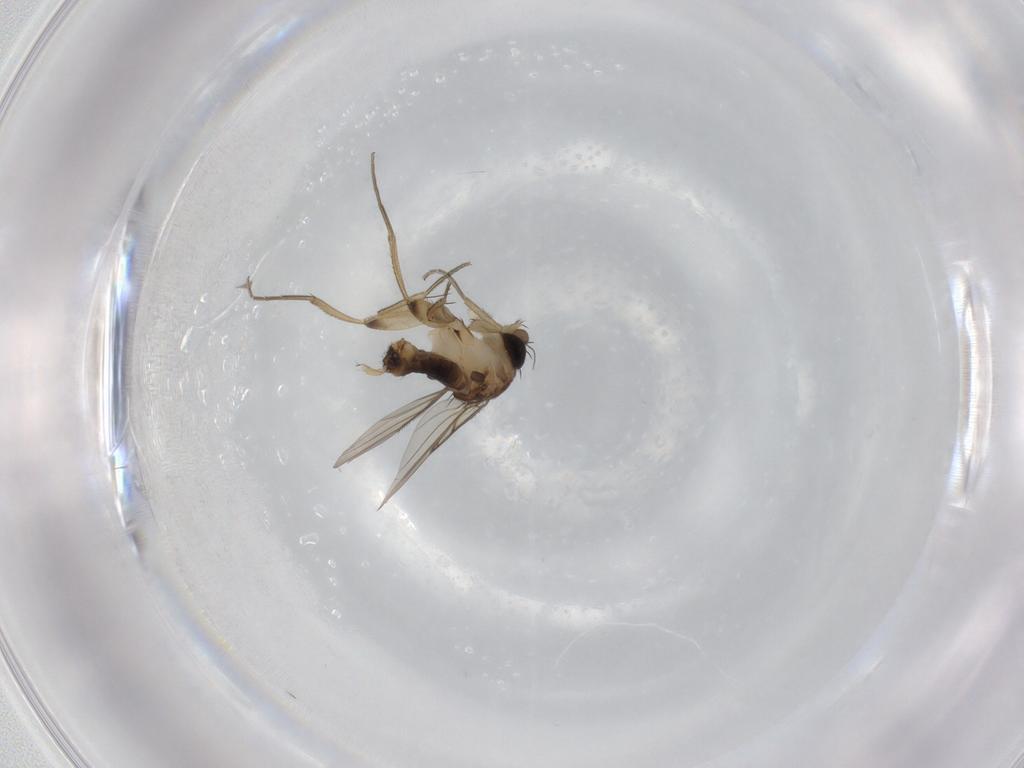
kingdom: Animalia
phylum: Arthropoda
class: Insecta
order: Diptera
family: Phoridae
